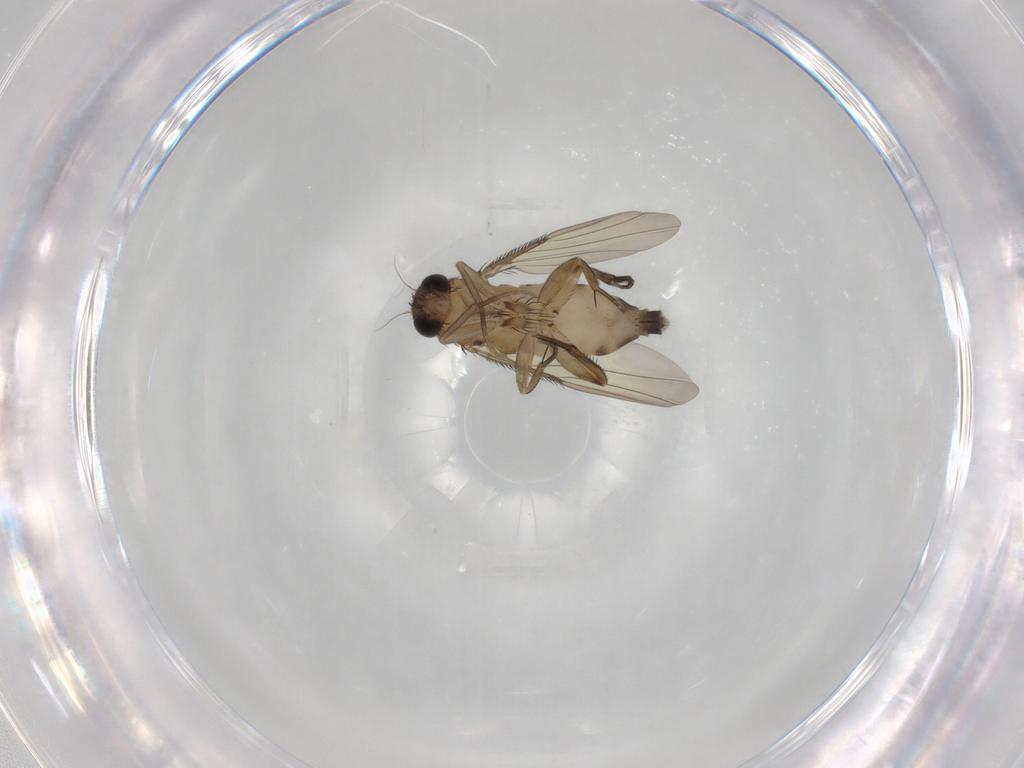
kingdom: Animalia
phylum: Arthropoda
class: Insecta
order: Diptera
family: Phoridae
